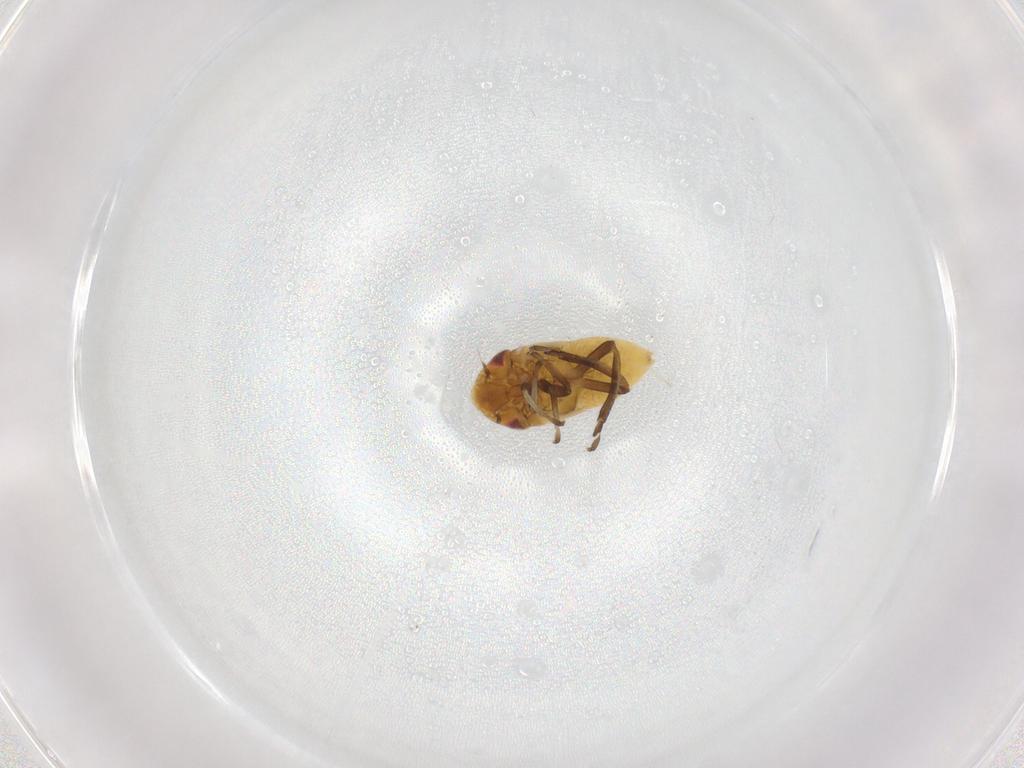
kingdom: Animalia
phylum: Arthropoda
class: Insecta
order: Hemiptera
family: Cicadellidae
